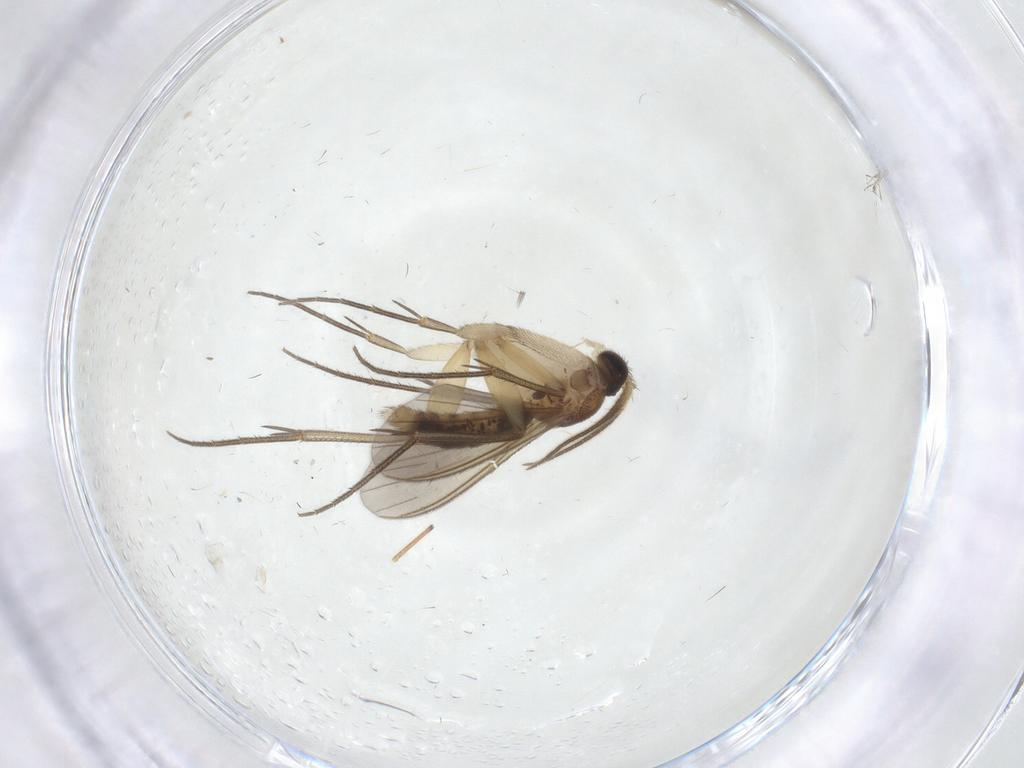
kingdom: Animalia
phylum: Arthropoda
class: Insecta
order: Diptera
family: Mycetophilidae
